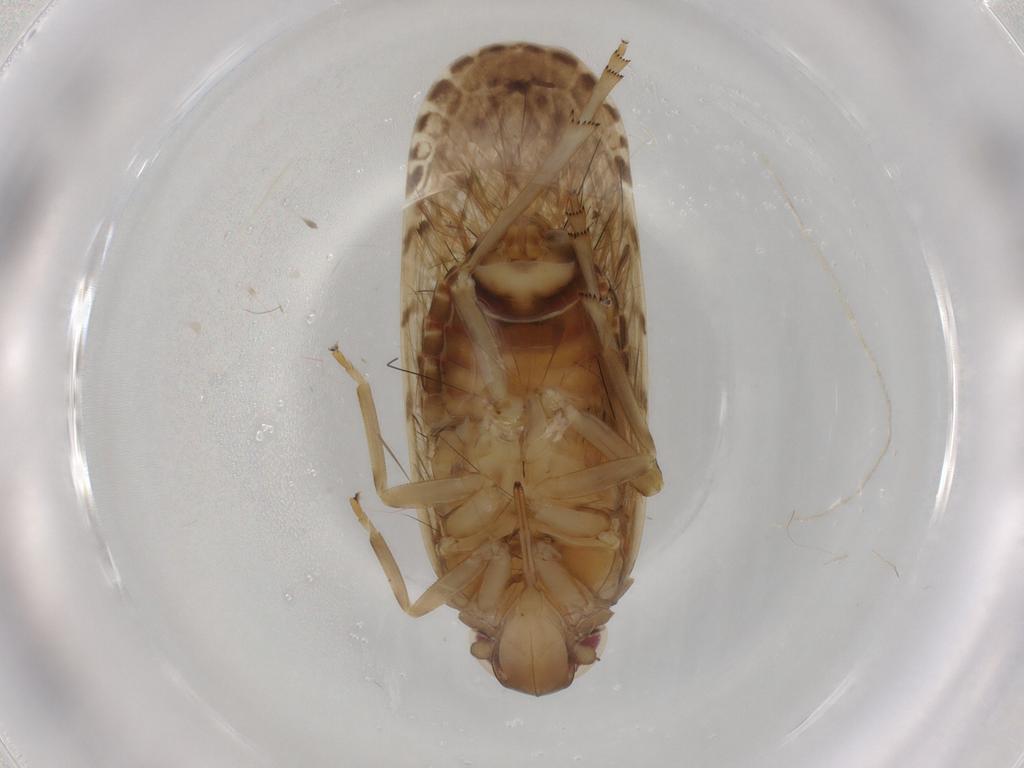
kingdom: Animalia
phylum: Arthropoda
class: Insecta
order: Hemiptera
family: Pyrrhocoridae
